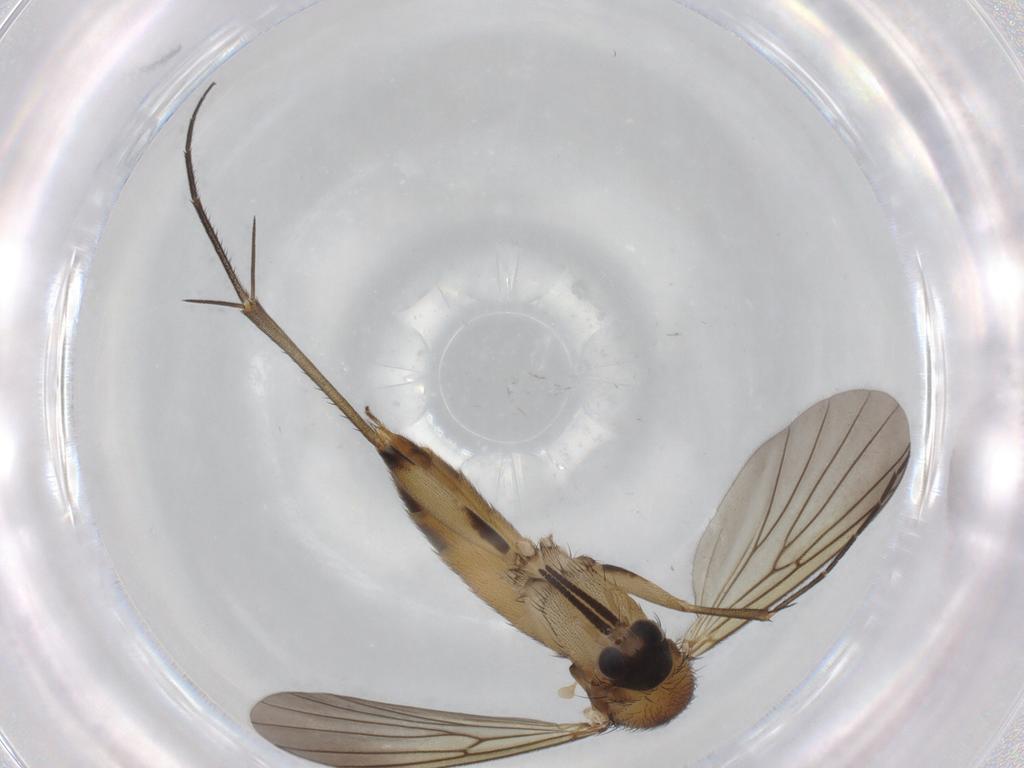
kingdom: Animalia
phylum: Arthropoda
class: Insecta
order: Diptera
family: Mycetophilidae
